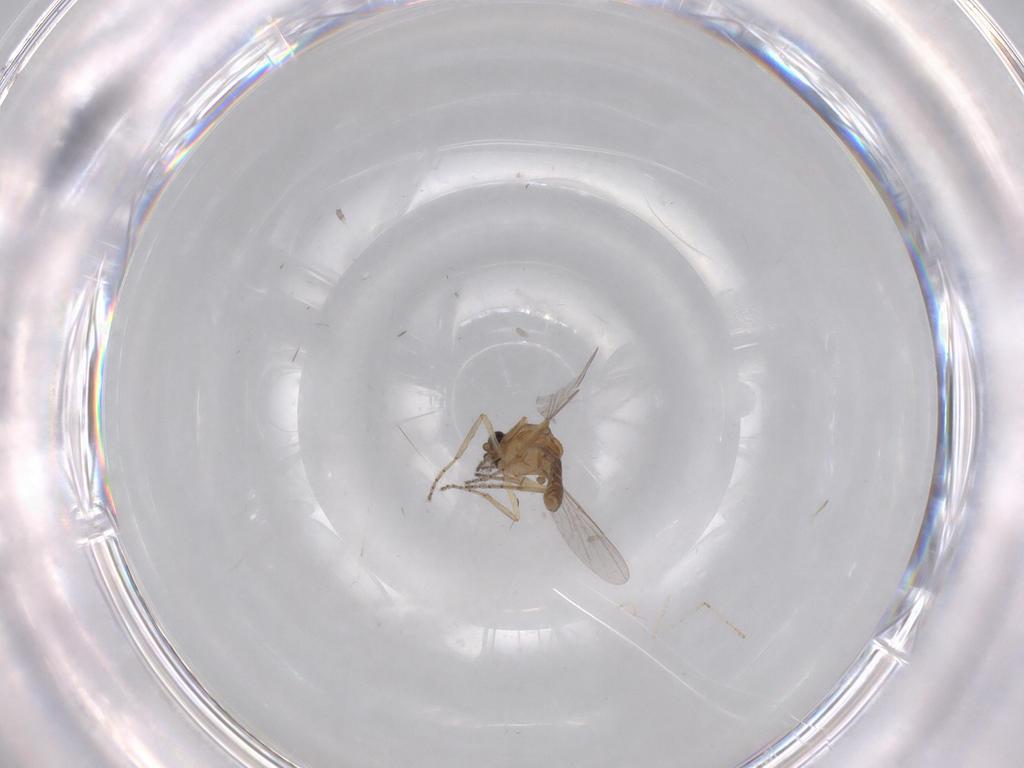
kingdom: Animalia
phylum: Arthropoda
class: Insecta
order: Diptera
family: Ceratopogonidae
